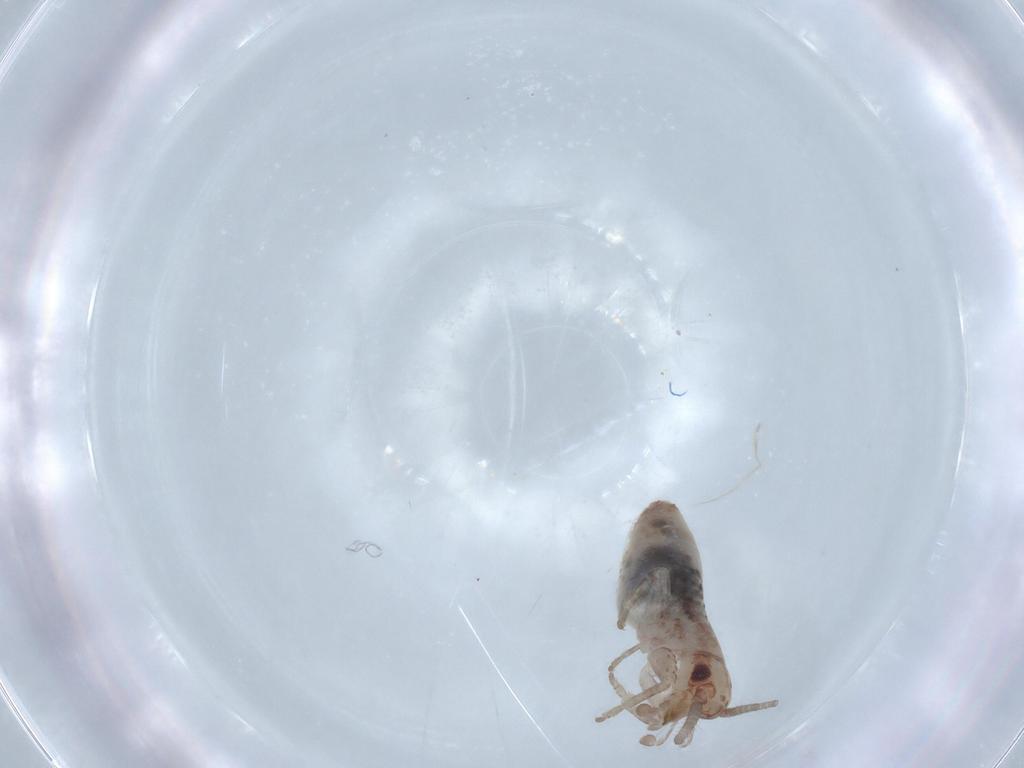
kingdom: Animalia
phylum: Arthropoda
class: Insecta
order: Orthoptera
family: Mogoplistidae
